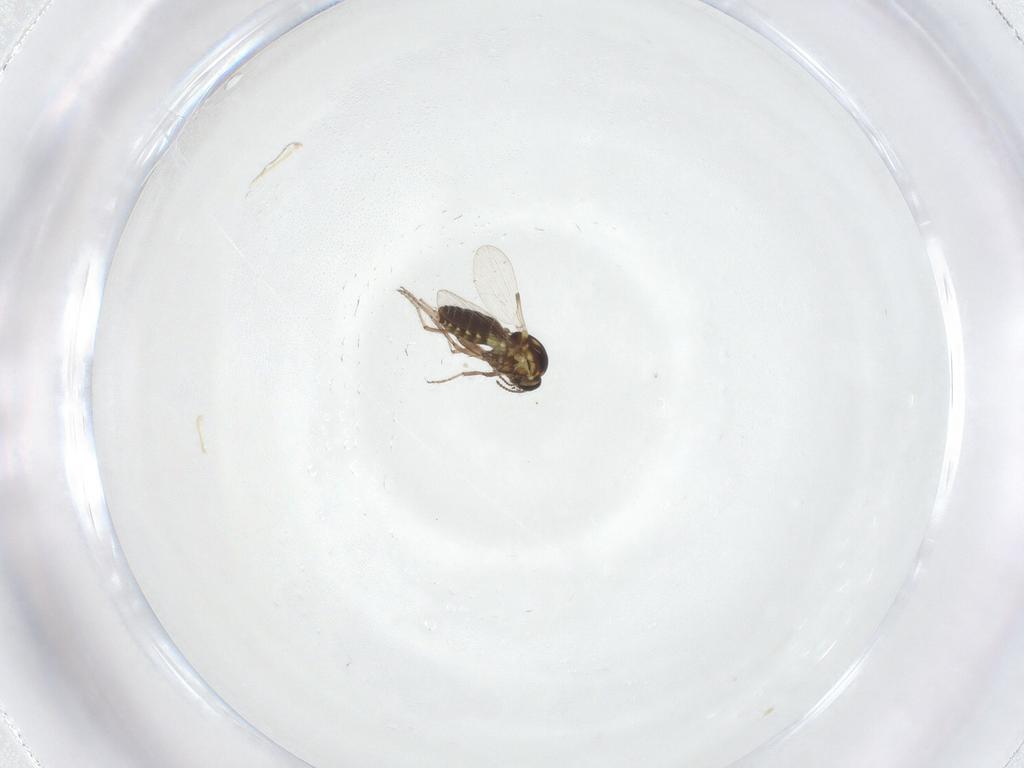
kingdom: Animalia
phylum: Arthropoda
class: Insecta
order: Diptera
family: Ceratopogonidae
